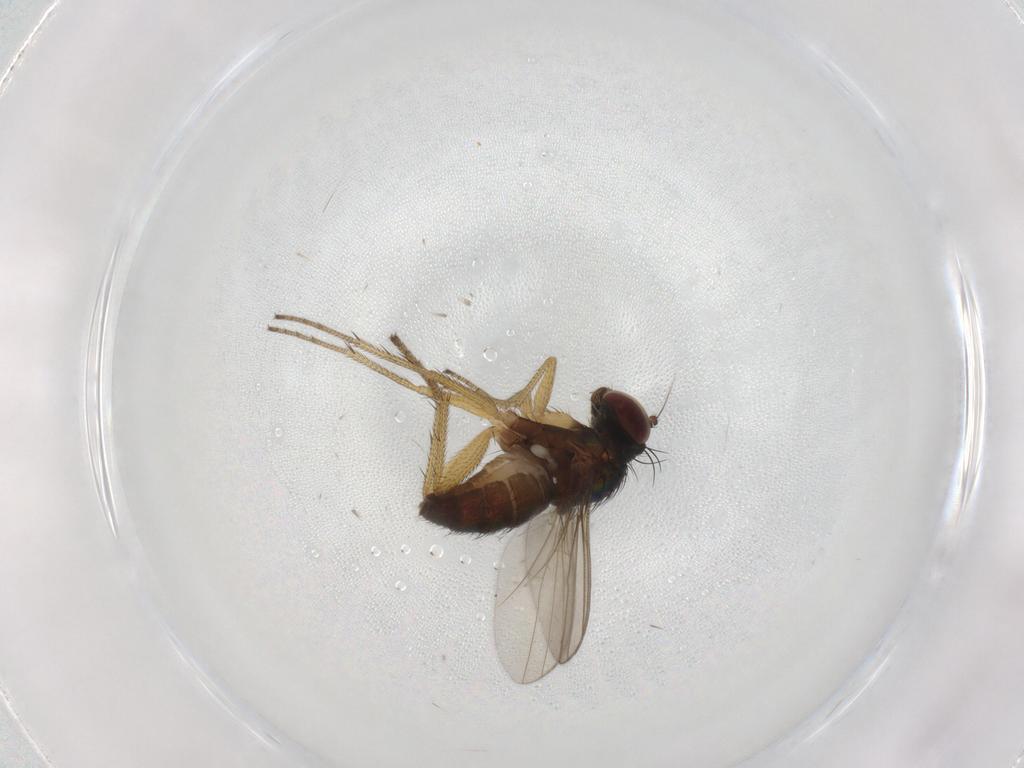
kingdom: Animalia
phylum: Arthropoda
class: Insecta
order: Diptera
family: Dolichopodidae
